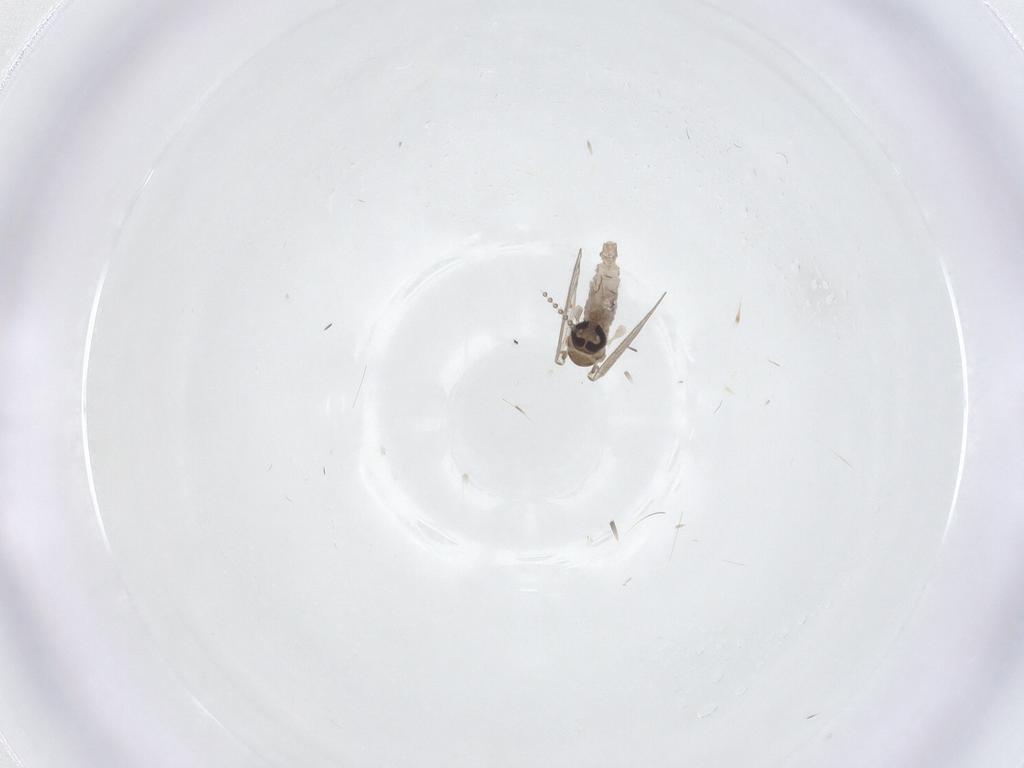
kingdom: Animalia
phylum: Arthropoda
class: Insecta
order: Diptera
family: Psychodidae
